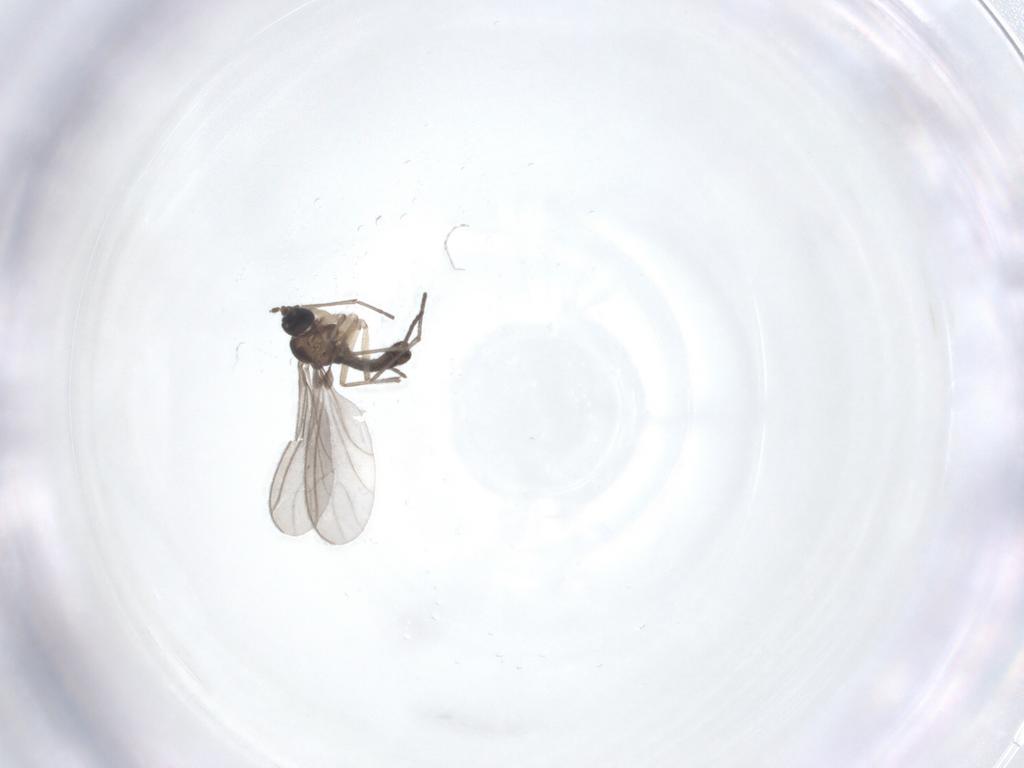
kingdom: Animalia
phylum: Arthropoda
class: Insecta
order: Diptera
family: Sciaridae
